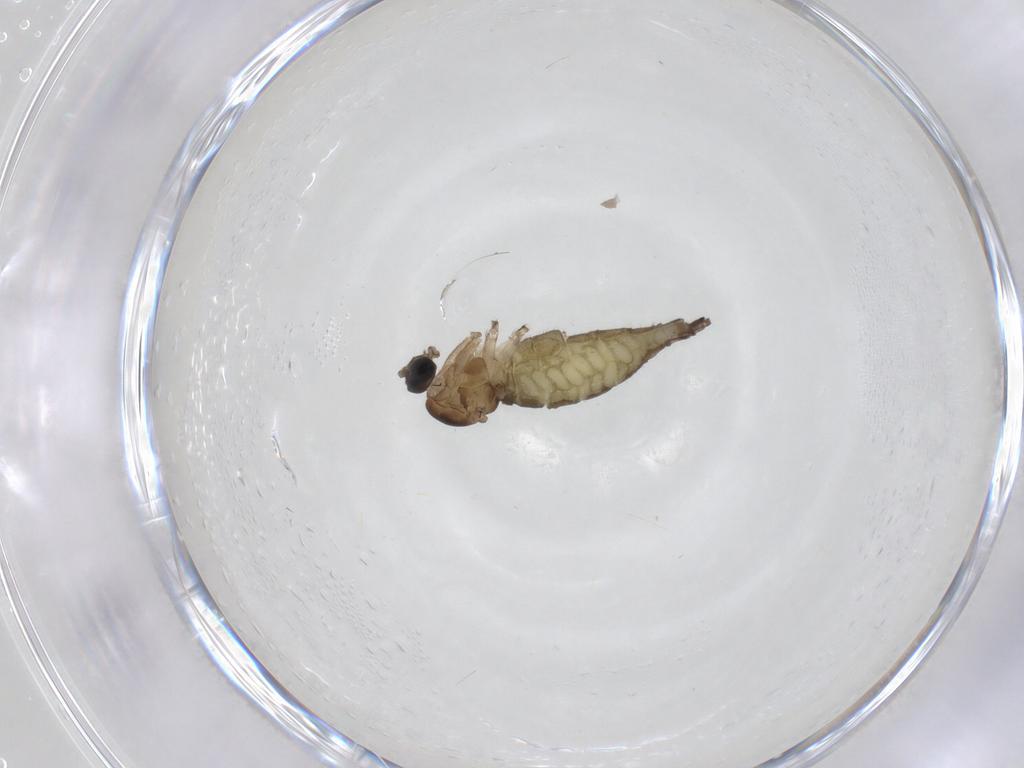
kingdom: Animalia
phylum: Arthropoda
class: Insecta
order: Diptera
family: Sciaridae
